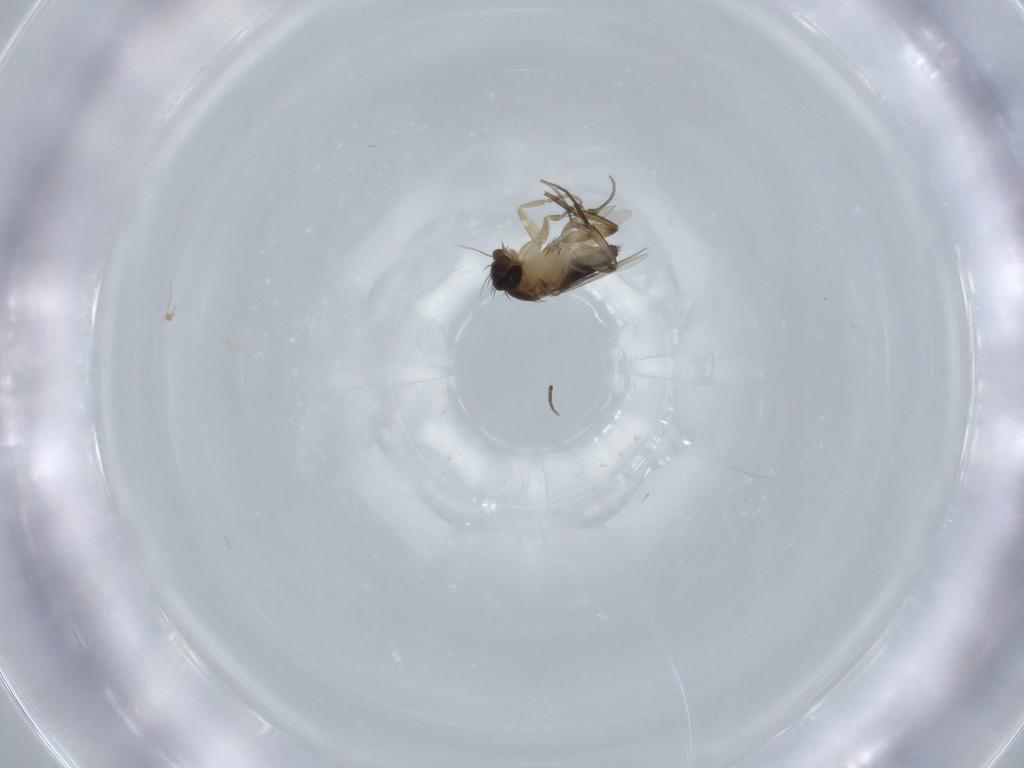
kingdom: Animalia
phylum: Arthropoda
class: Insecta
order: Diptera
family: Phoridae
